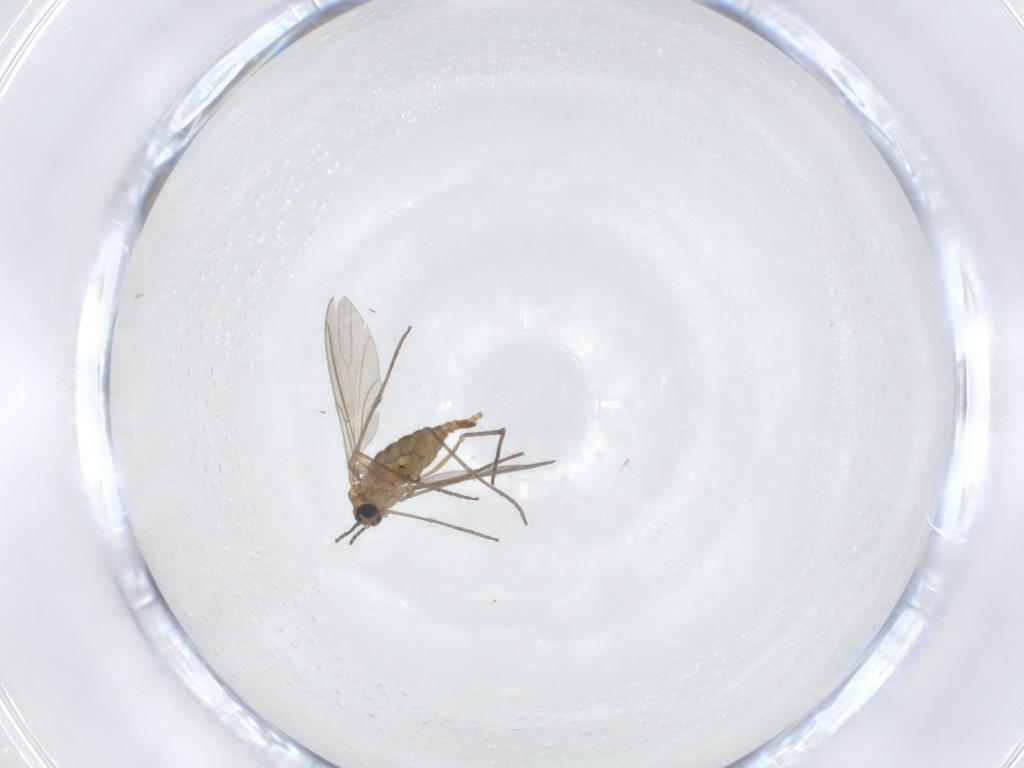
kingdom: Animalia
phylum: Arthropoda
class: Insecta
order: Diptera
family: Sciaridae
